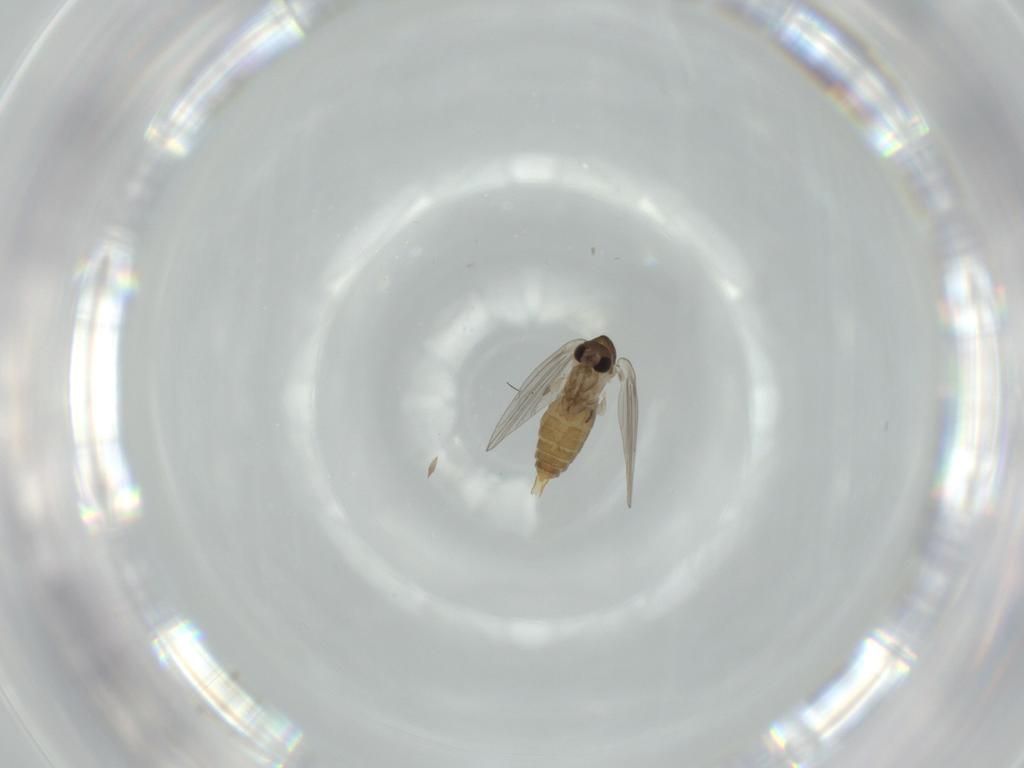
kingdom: Animalia
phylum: Arthropoda
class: Insecta
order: Diptera
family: Psychodidae
